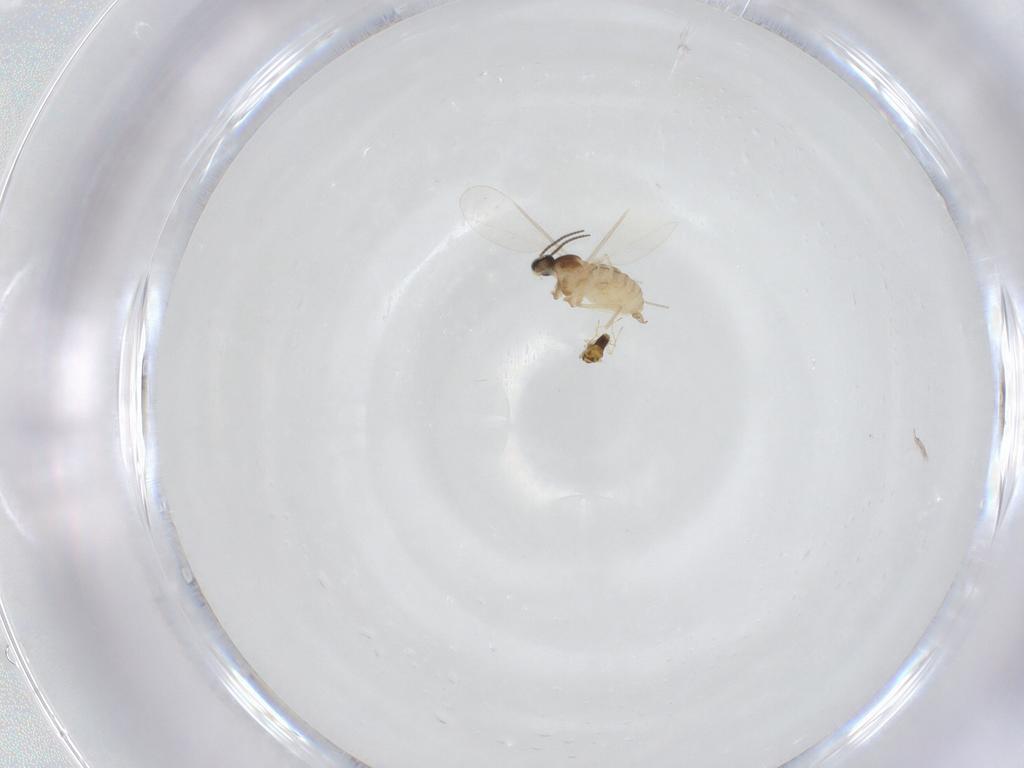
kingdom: Animalia
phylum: Arthropoda
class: Insecta
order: Diptera
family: Cecidomyiidae
